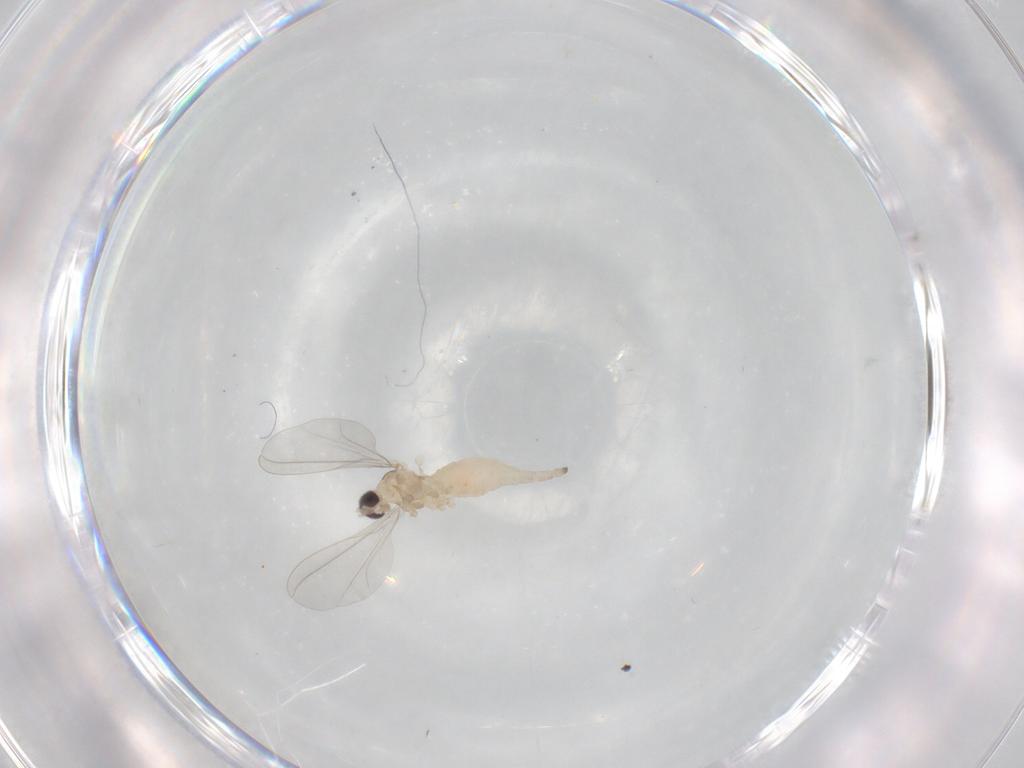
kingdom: Animalia
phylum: Arthropoda
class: Insecta
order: Diptera
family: Cecidomyiidae
